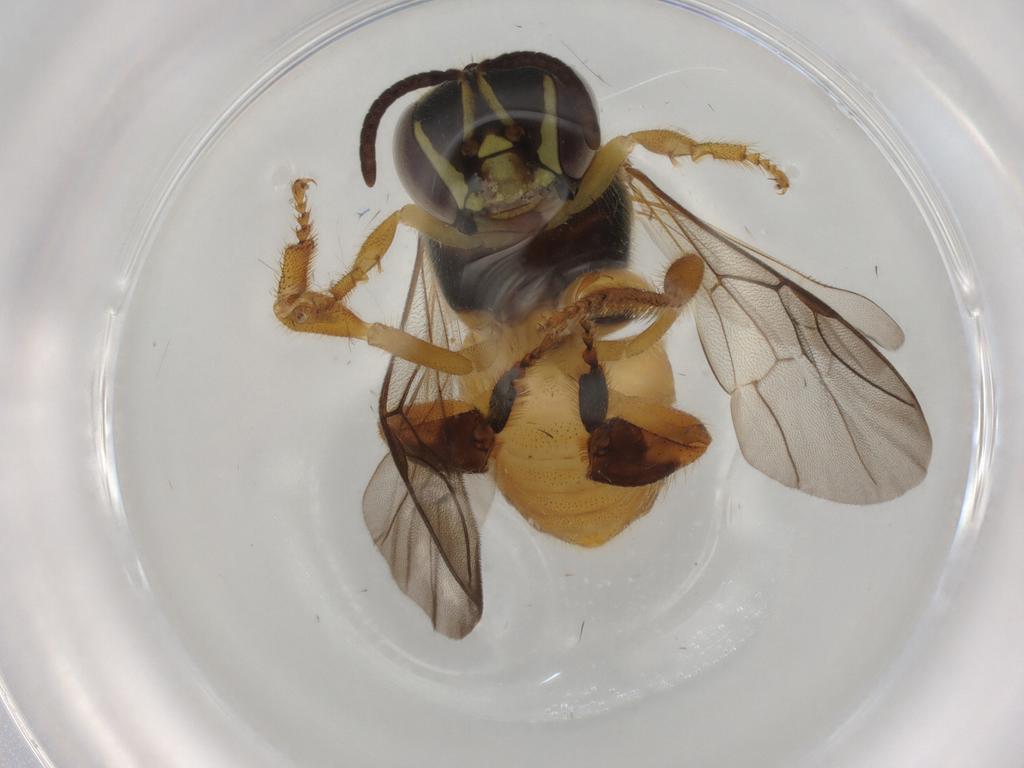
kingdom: Animalia
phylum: Arthropoda
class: Insecta
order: Hymenoptera
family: Apidae
